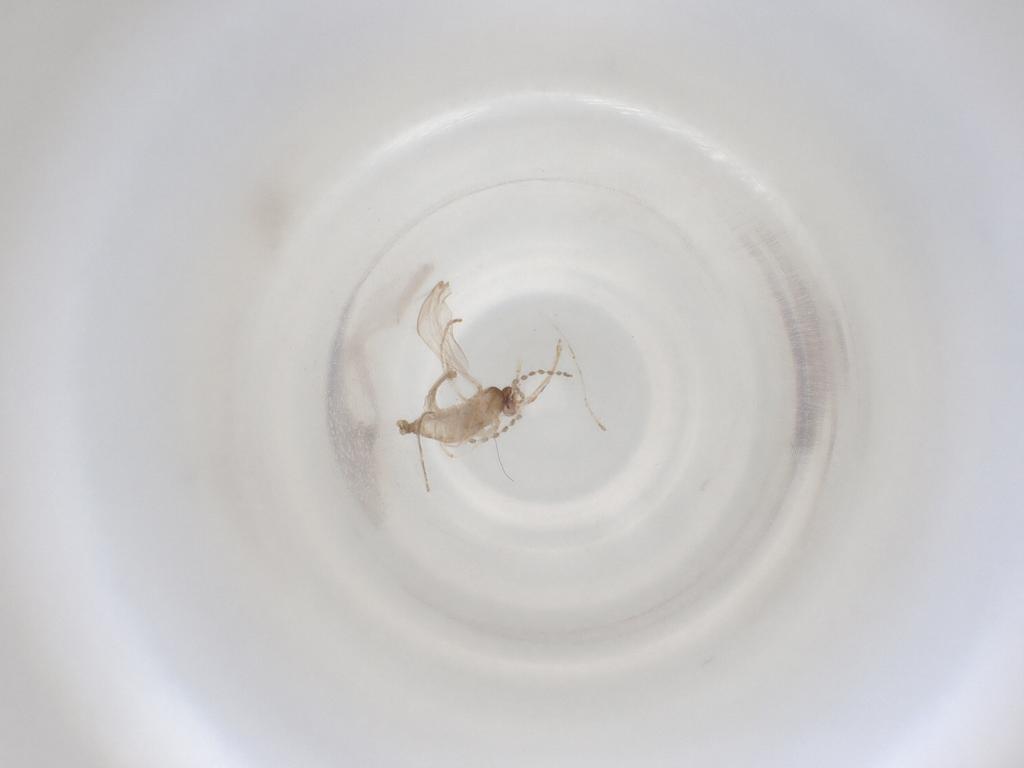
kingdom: Animalia
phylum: Arthropoda
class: Insecta
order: Diptera
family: Cecidomyiidae
